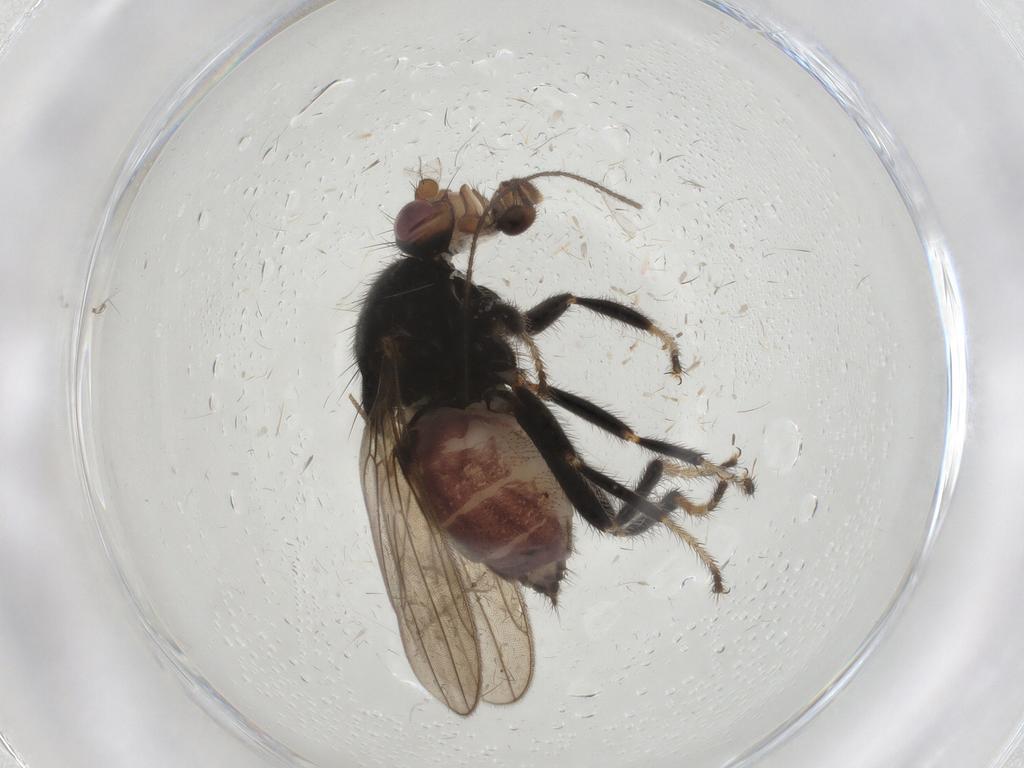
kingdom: Animalia
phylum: Arthropoda
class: Insecta
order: Diptera
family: Sphaeroceridae
